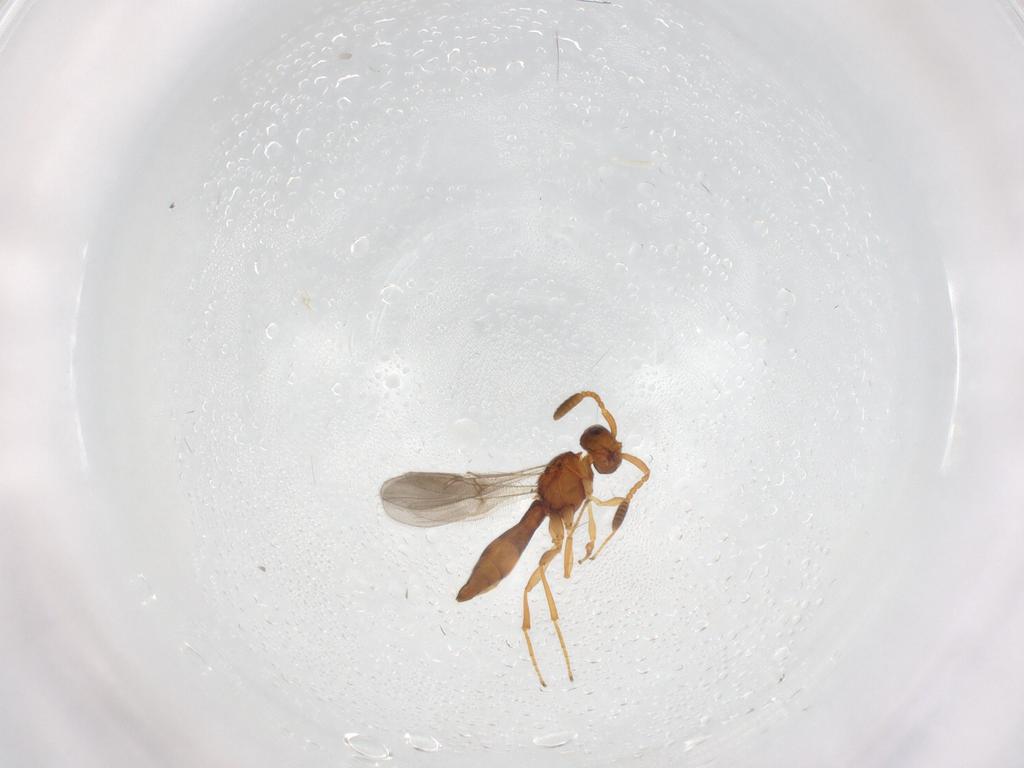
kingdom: Animalia
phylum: Arthropoda
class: Insecta
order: Hymenoptera
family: Scelionidae
